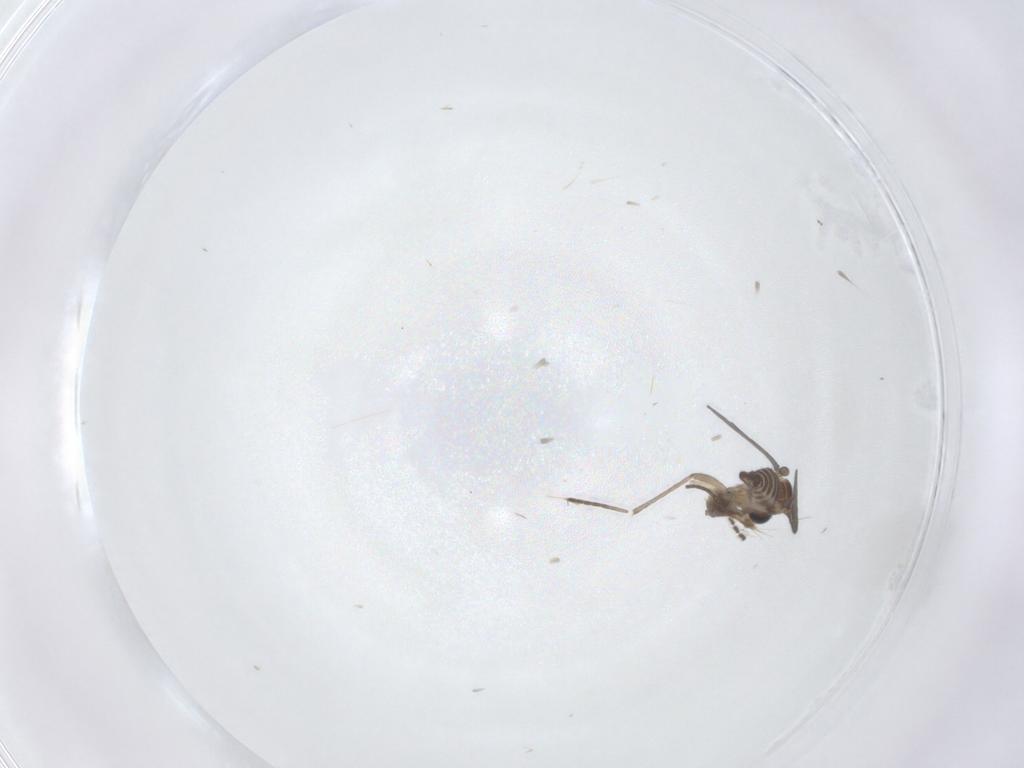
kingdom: Animalia
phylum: Arthropoda
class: Insecta
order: Diptera
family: Sciaridae
